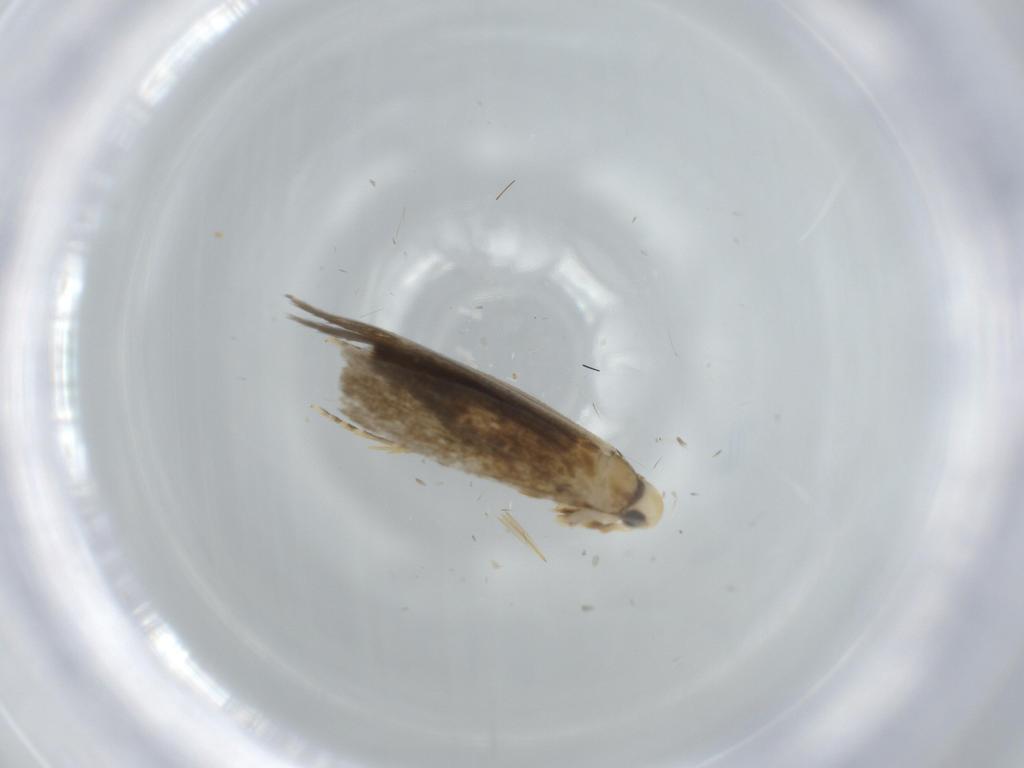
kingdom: Animalia
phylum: Arthropoda
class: Insecta
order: Lepidoptera
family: Tineidae
